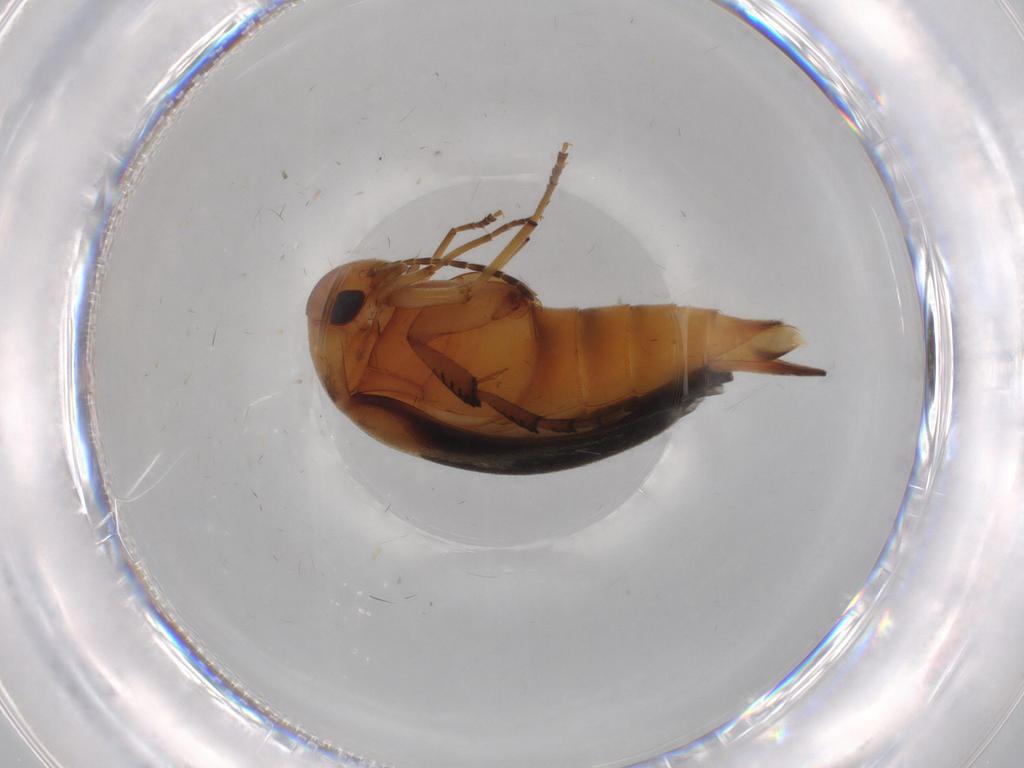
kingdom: Animalia
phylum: Arthropoda
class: Insecta
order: Coleoptera
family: Mordellidae
